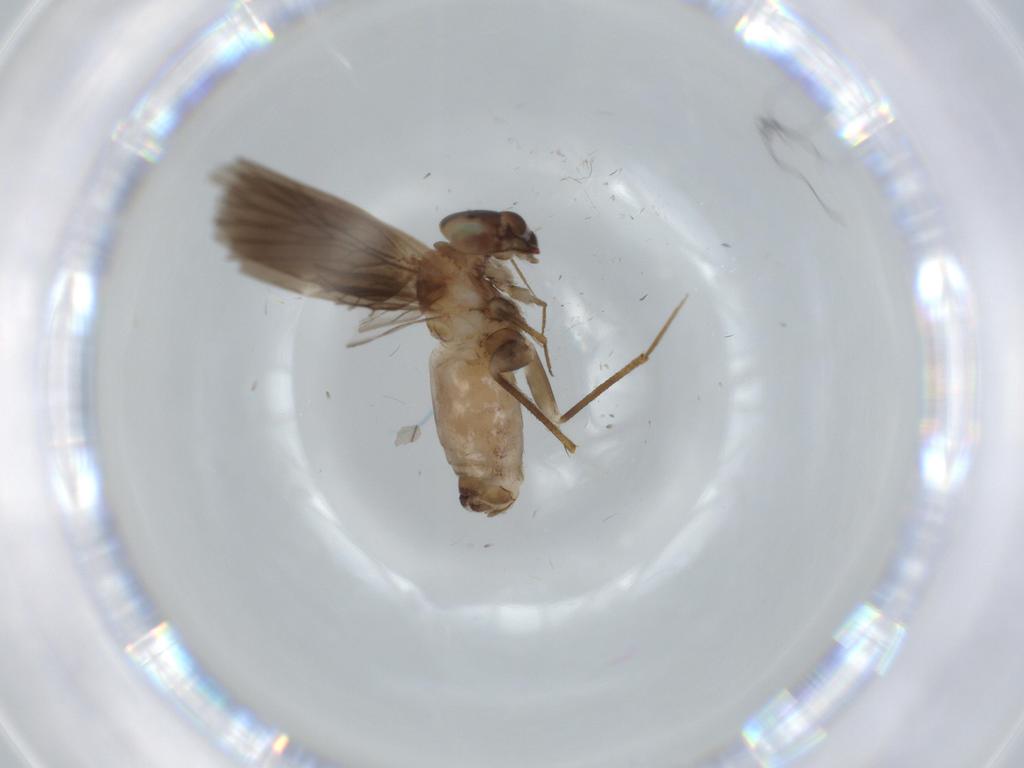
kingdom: Animalia
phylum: Arthropoda
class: Insecta
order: Psocodea
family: Lepidopsocidae
